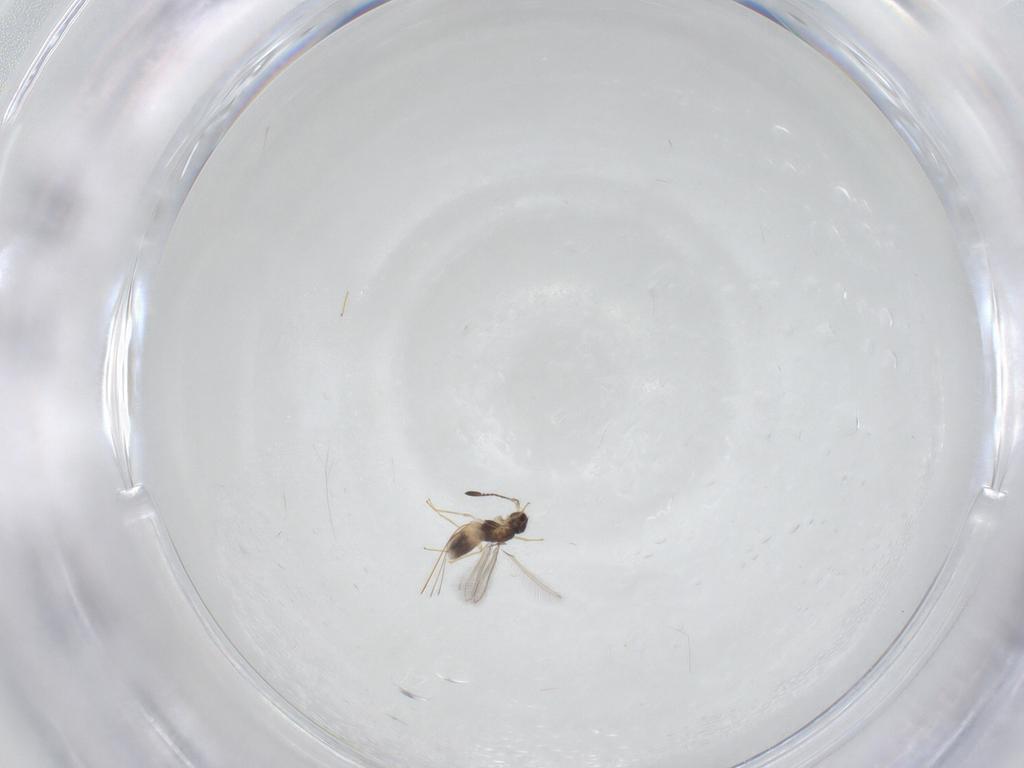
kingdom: Animalia
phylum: Arthropoda
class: Insecta
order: Hymenoptera
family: Mymaridae
